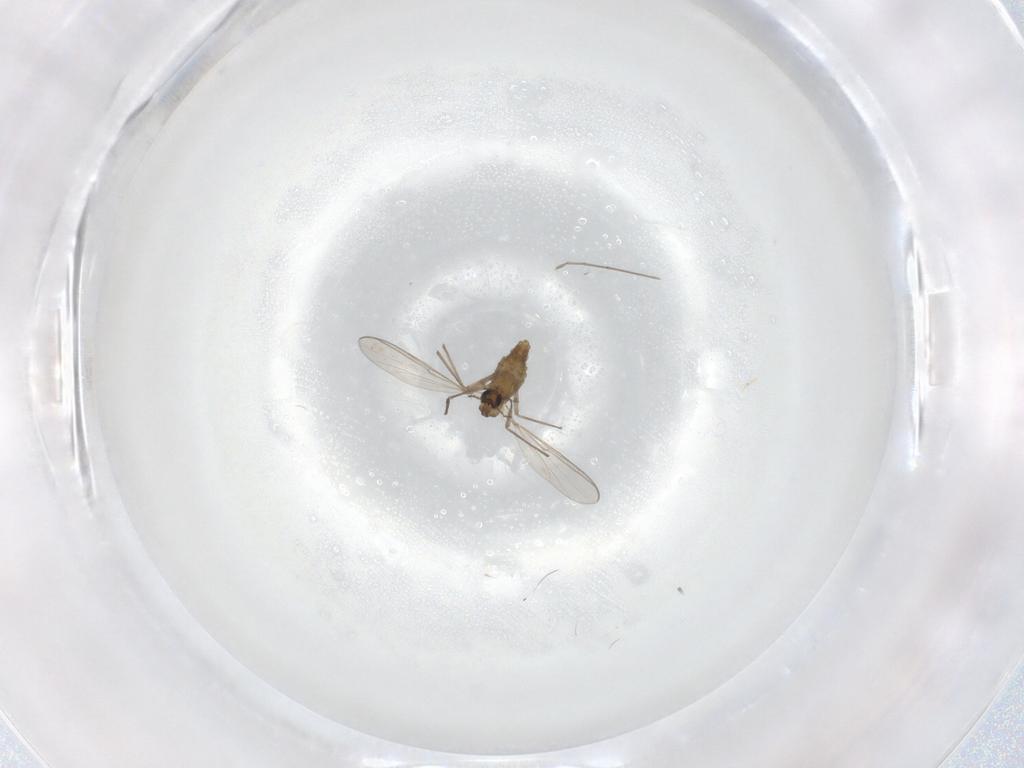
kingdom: Animalia
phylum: Arthropoda
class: Insecta
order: Diptera
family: Chironomidae
